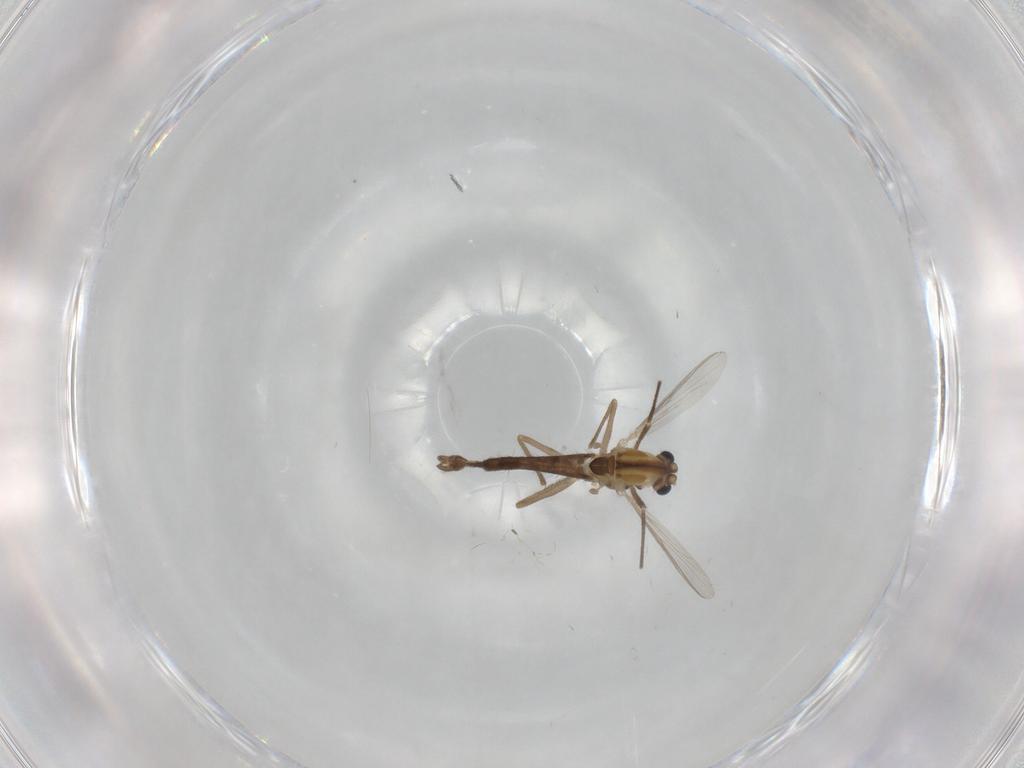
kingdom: Animalia
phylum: Arthropoda
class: Insecta
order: Diptera
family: Chironomidae
